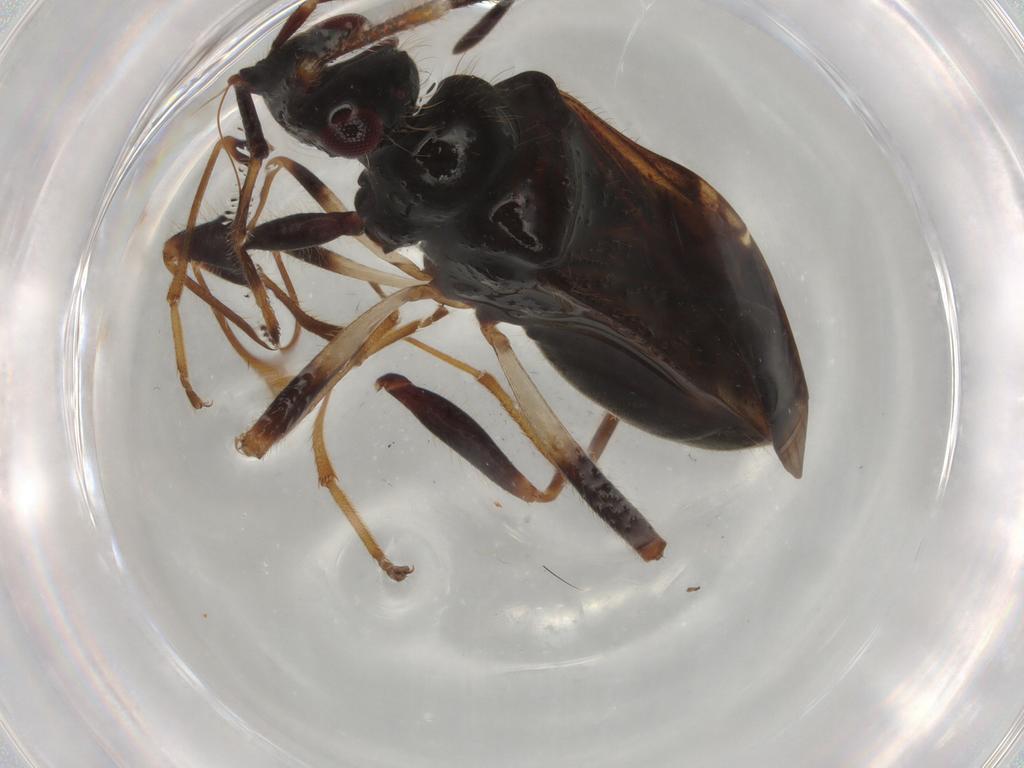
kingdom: Animalia
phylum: Arthropoda
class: Insecta
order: Hemiptera
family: Rhyparochromidae
